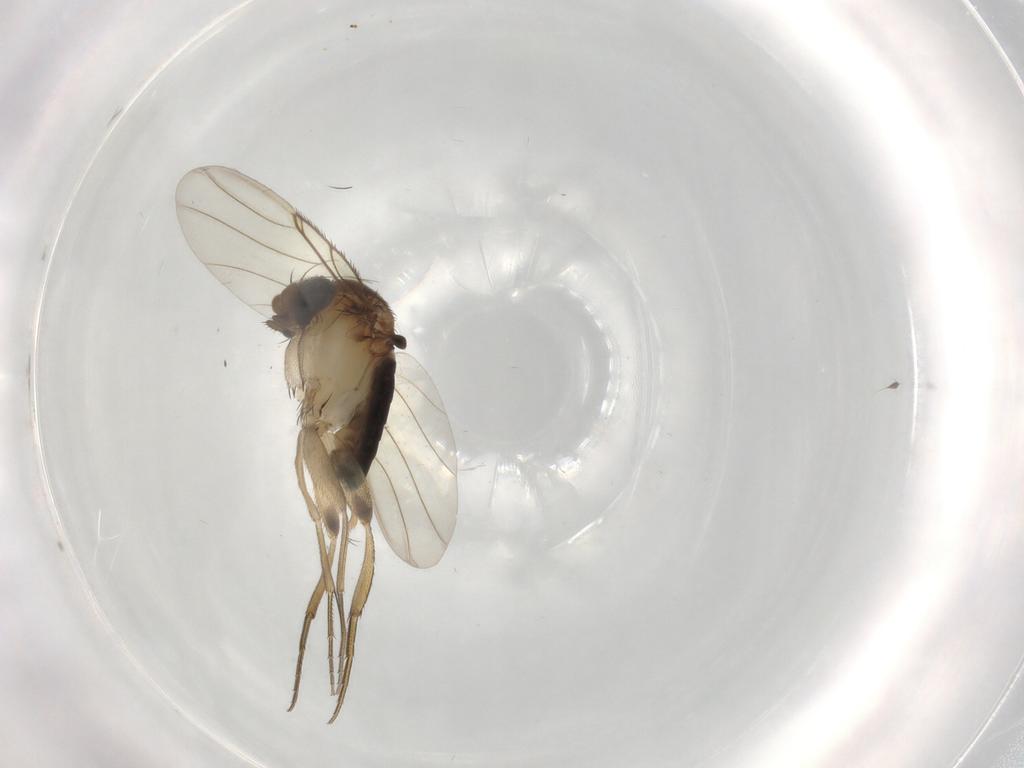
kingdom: Animalia
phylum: Arthropoda
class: Insecta
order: Diptera
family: Phoridae
